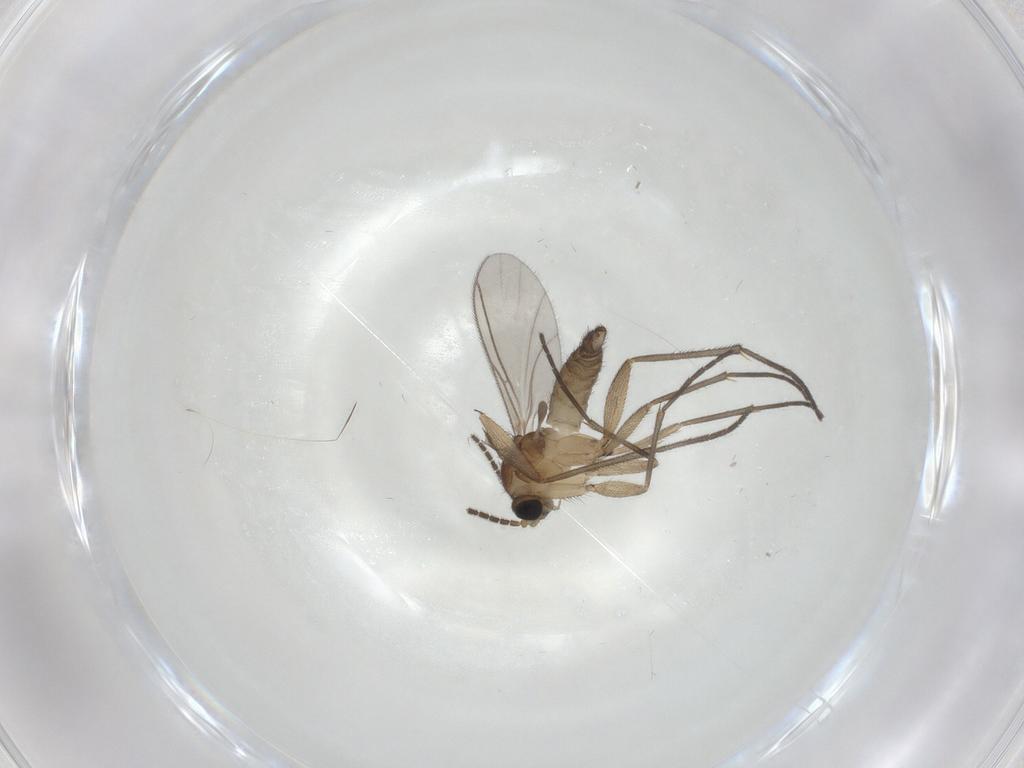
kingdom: Animalia
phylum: Arthropoda
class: Insecta
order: Diptera
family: Sciaridae
